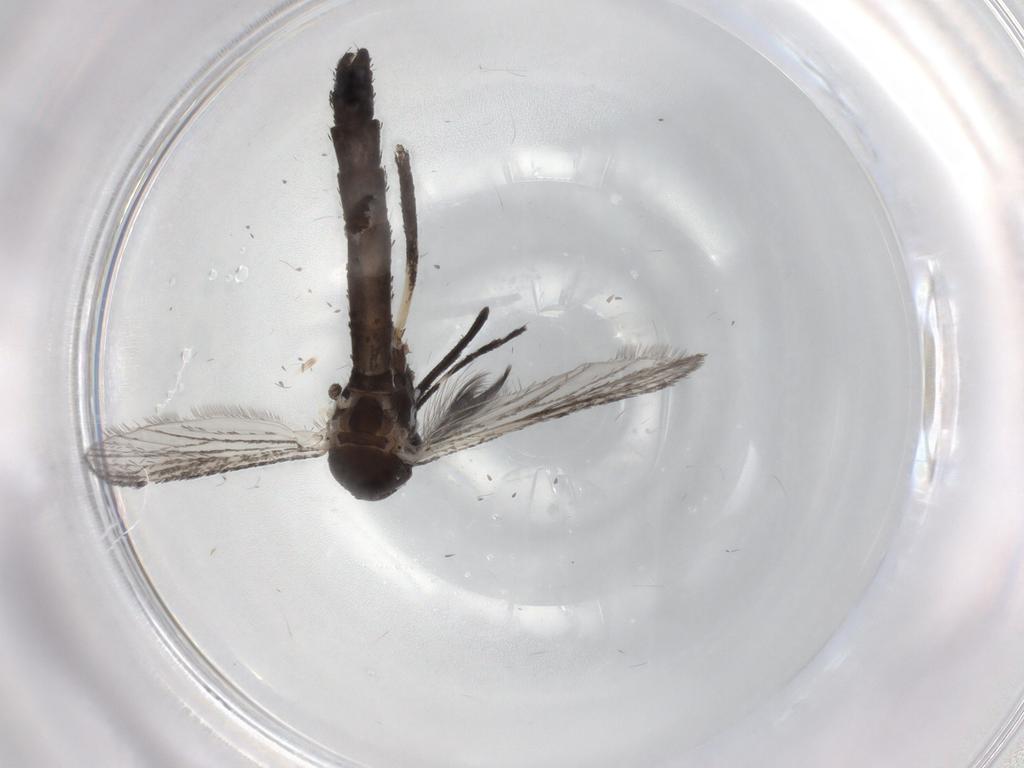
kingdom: Animalia
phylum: Arthropoda
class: Insecta
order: Diptera
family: Culicidae
